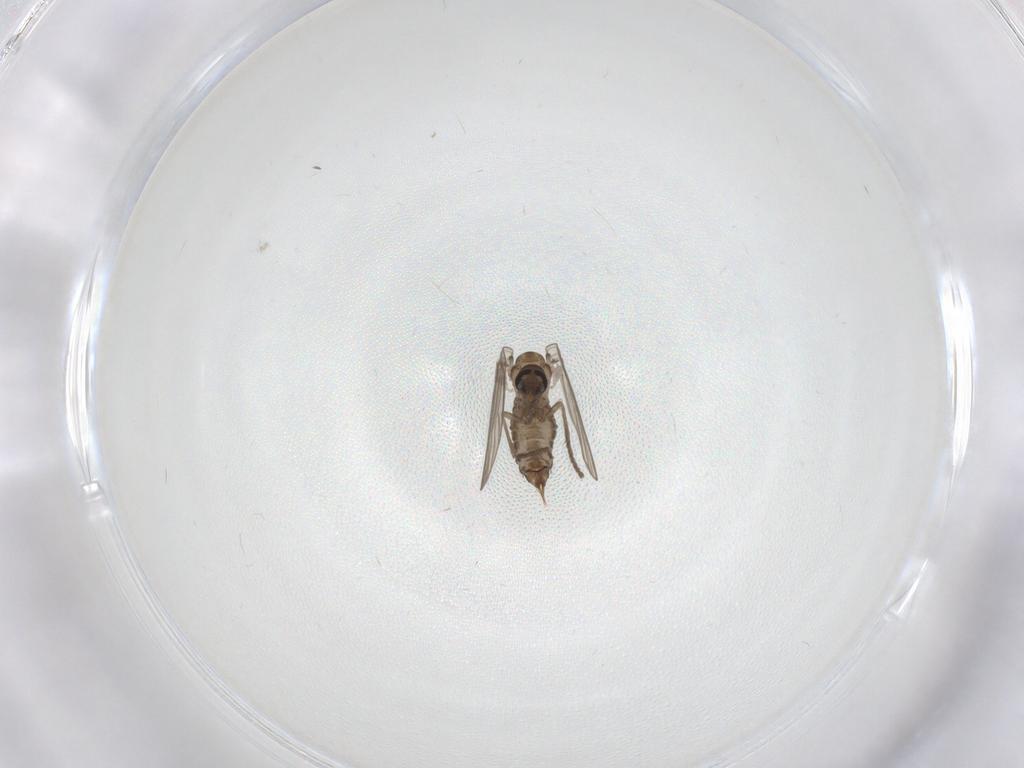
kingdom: Animalia
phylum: Arthropoda
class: Insecta
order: Diptera
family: Psychodidae
